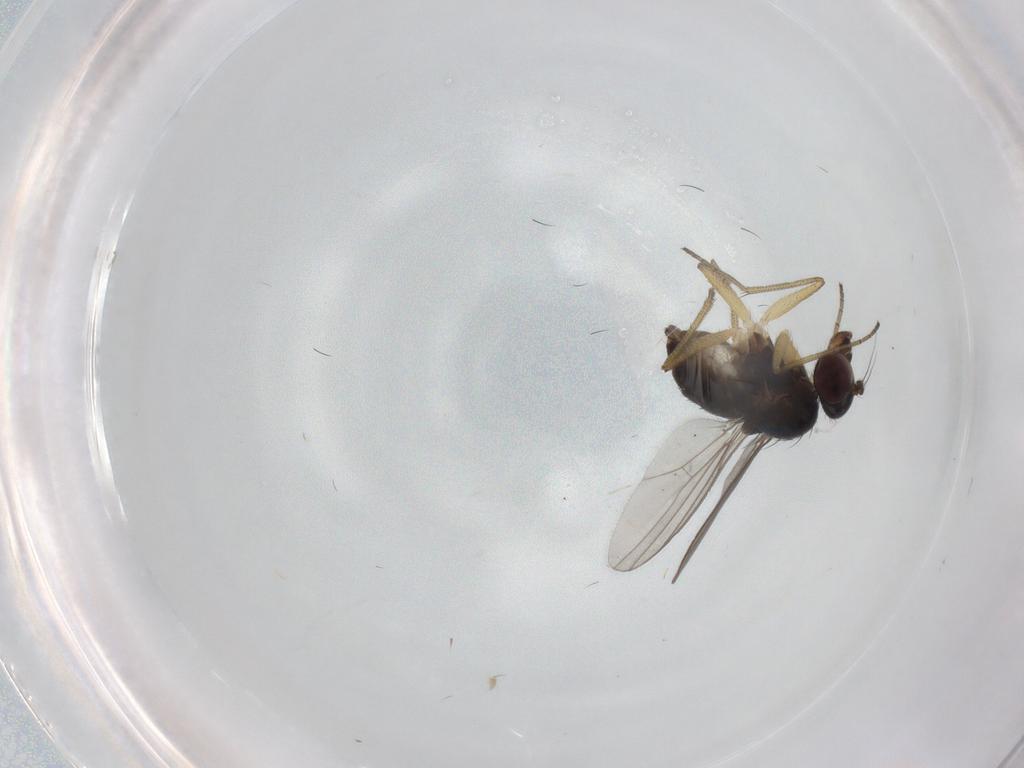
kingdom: Animalia
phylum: Arthropoda
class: Insecta
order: Diptera
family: Dolichopodidae
